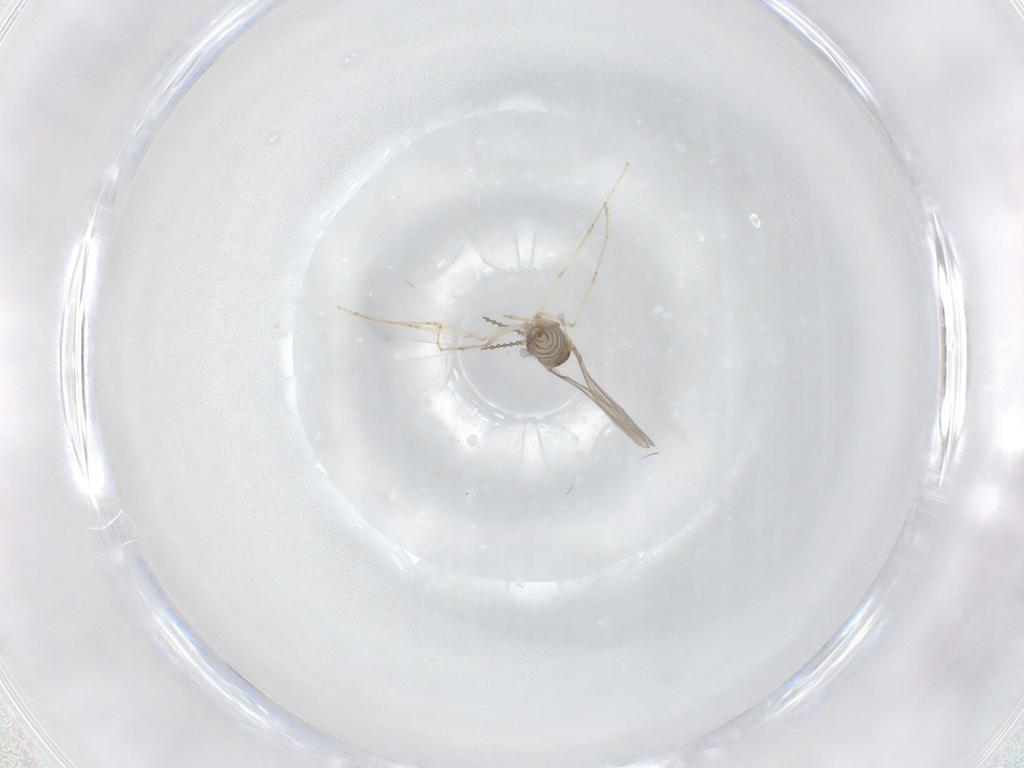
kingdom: Animalia
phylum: Arthropoda
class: Insecta
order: Diptera
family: Cecidomyiidae
